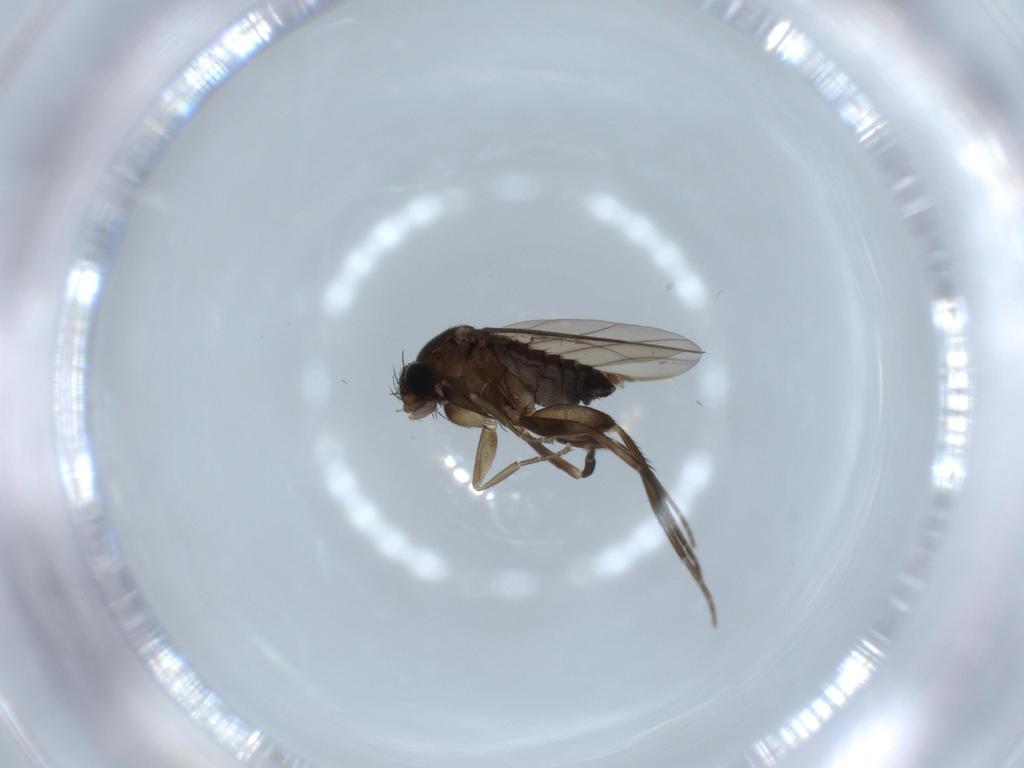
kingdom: Animalia
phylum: Arthropoda
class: Insecta
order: Diptera
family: Phoridae
